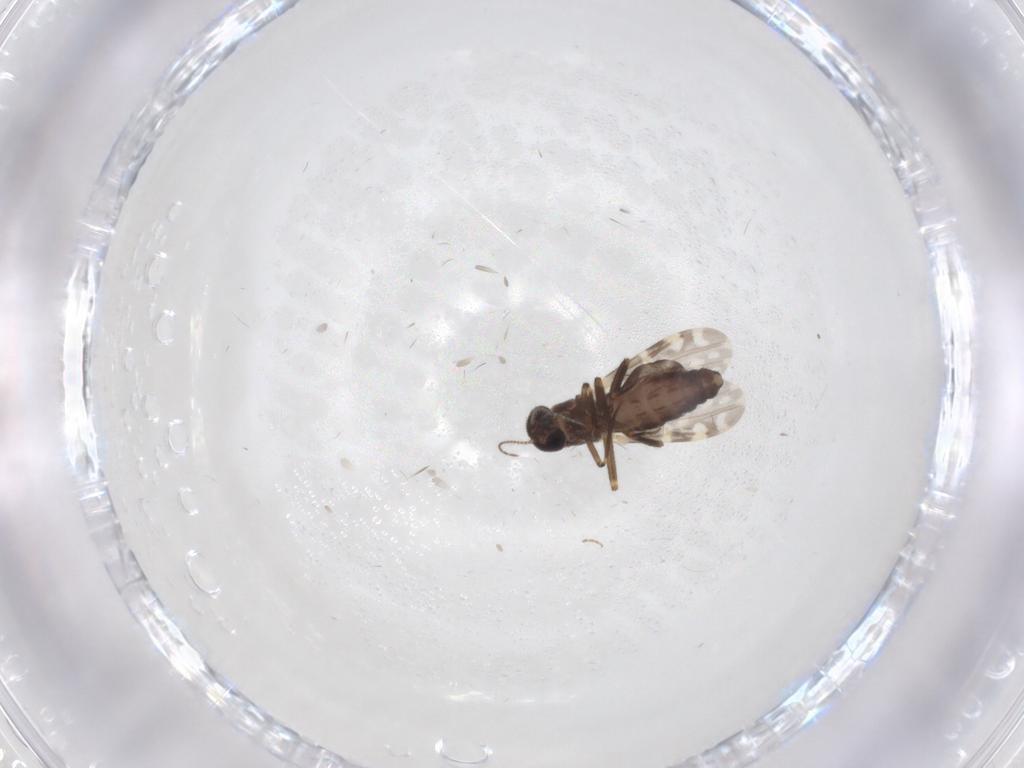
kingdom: Animalia
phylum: Arthropoda
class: Insecta
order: Diptera
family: Ceratopogonidae
